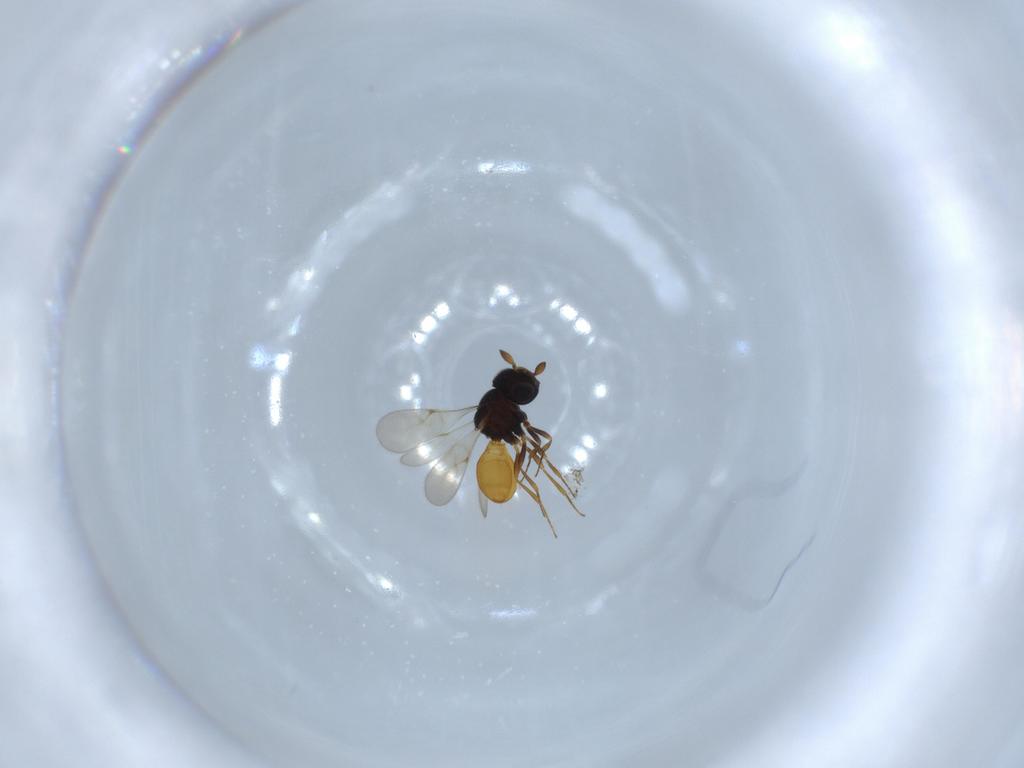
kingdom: Animalia
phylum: Arthropoda
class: Insecta
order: Hymenoptera
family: Scelionidae
